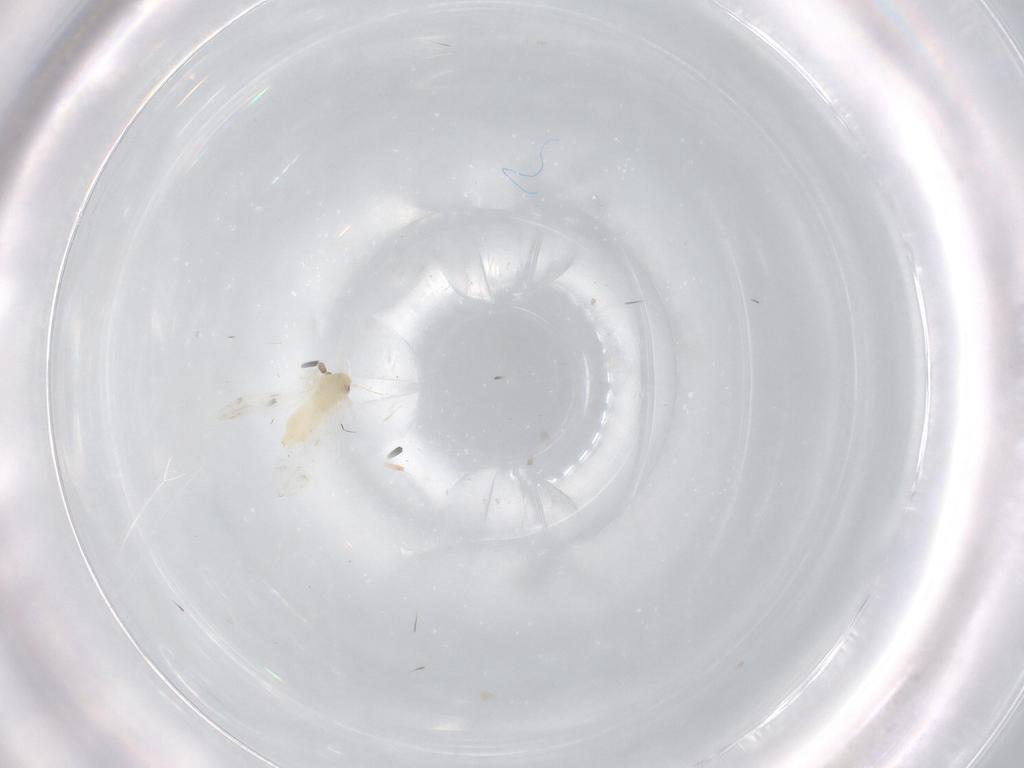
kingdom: Animalia
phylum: Arthropoda
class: Insecta
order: Hemiptera
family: Aleyrodidae
